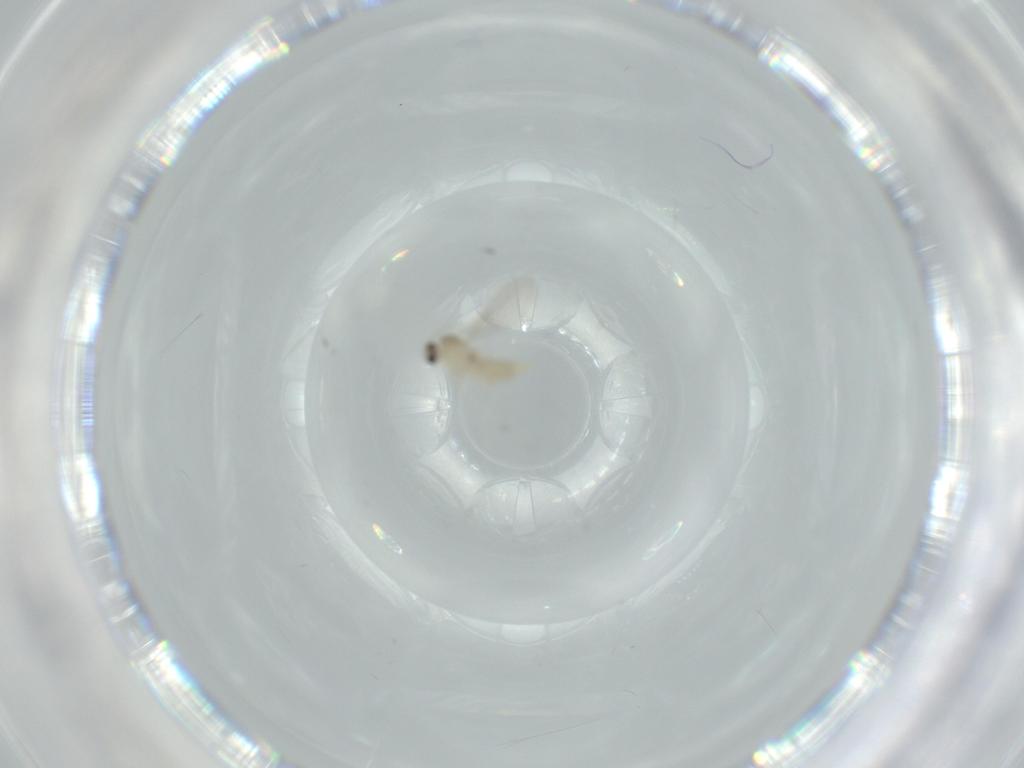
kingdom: Animalia
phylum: Arthropoda
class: Insecta
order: Diptera
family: Cecidomyiidae
